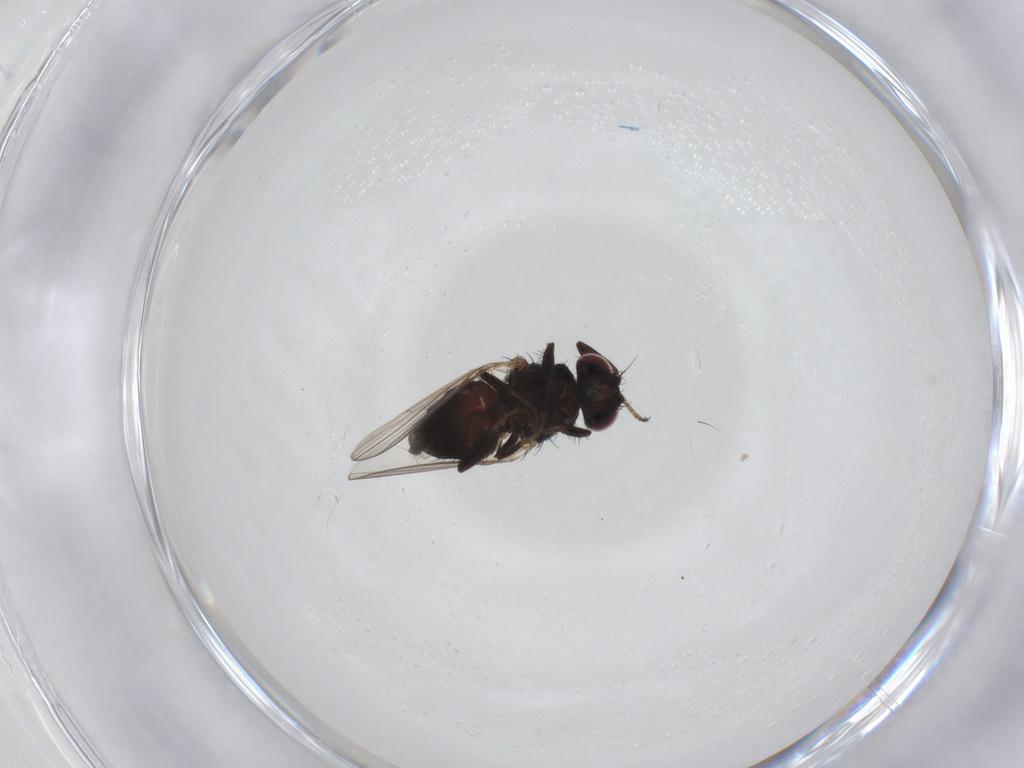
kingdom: Animalia
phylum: Arthropoda
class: Insecta
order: Diptera
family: Carnidae
